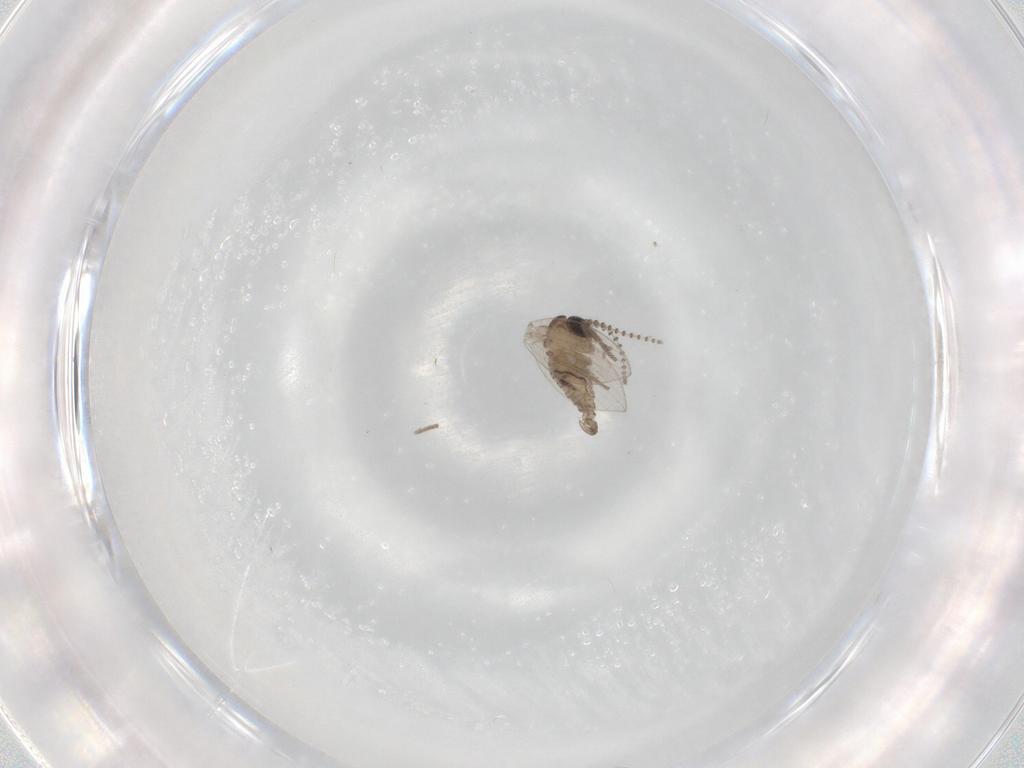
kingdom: Animalia
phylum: Arthropoda
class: Insecta
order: Diptera
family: Psychodidae
